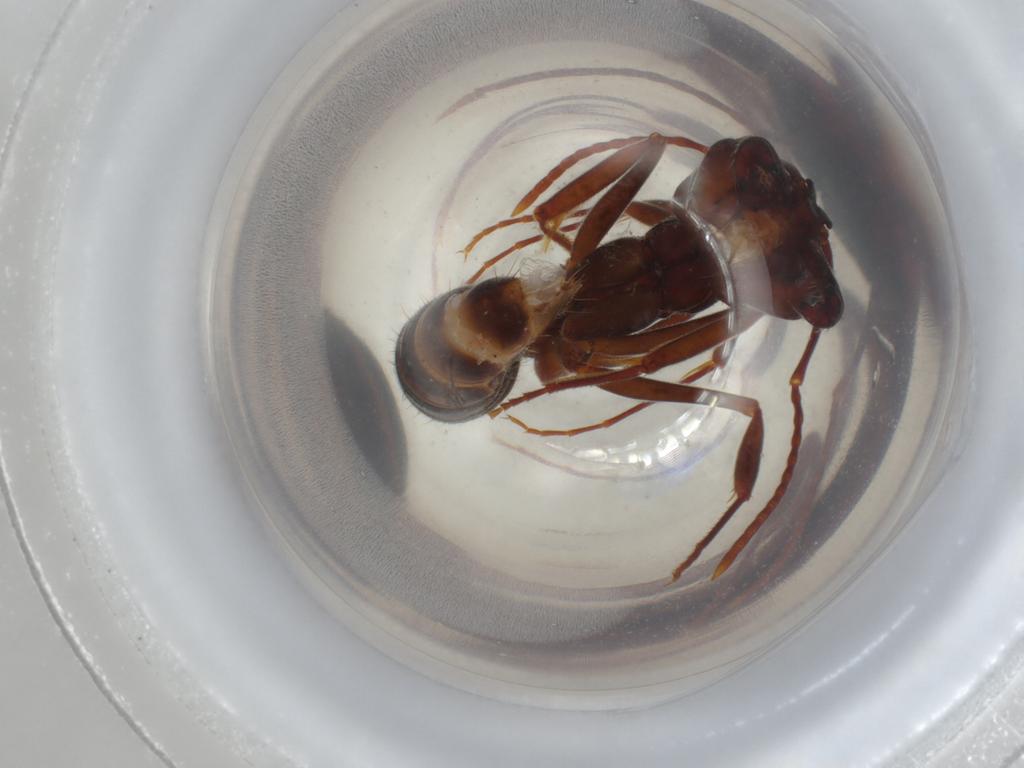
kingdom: Animalia
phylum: Arthropoda
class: Insecta
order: Hymenoptera
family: Formicidae
